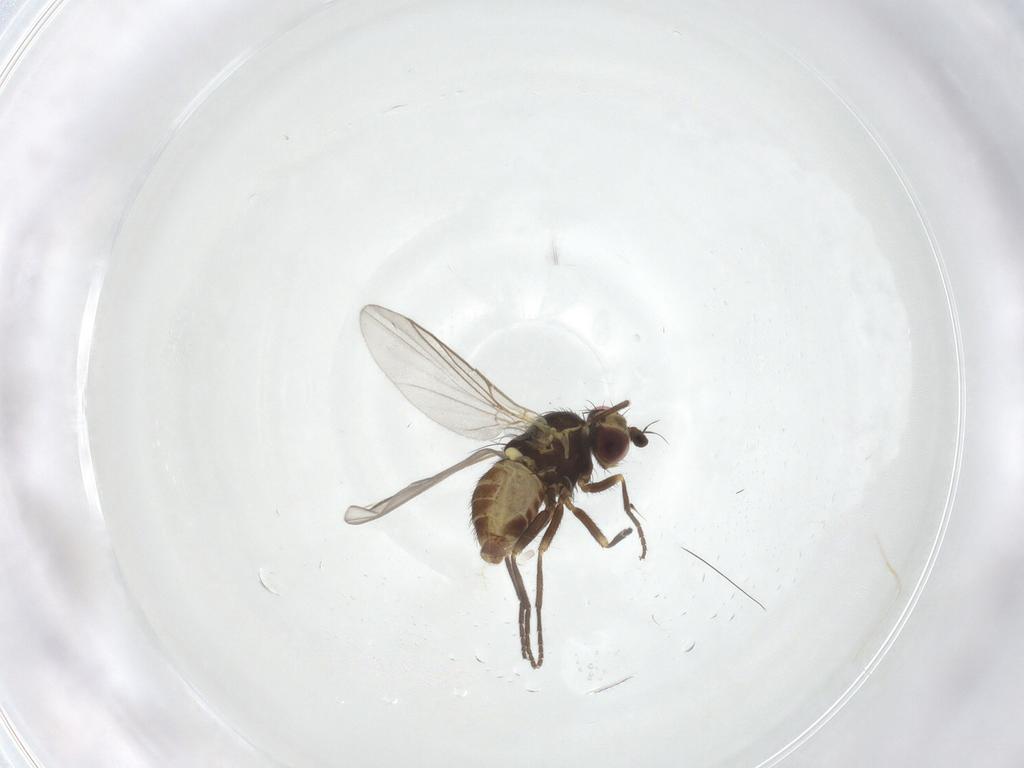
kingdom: Animalia
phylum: Arthropoda
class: Insecta
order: Diptera
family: Agromyzidae
